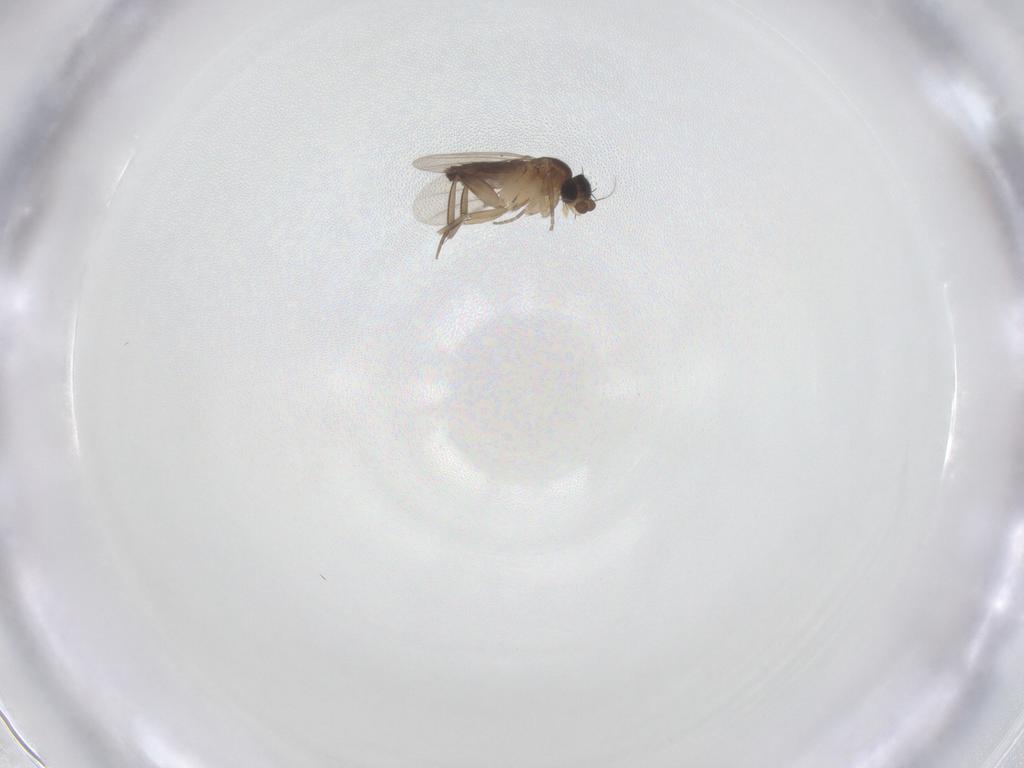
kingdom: Animalia
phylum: Arthropoda
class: Insecta
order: Diptera
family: Phoridae
